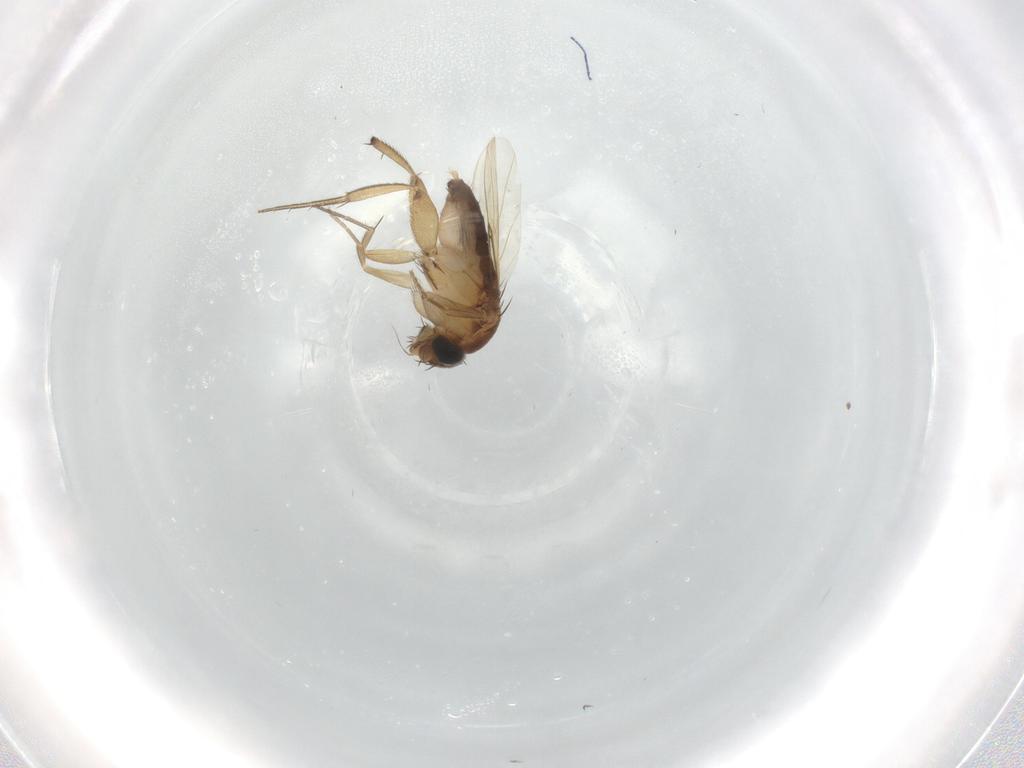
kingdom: Animalia
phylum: Arthropoda
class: Insecta
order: Diptera
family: Phoridae
